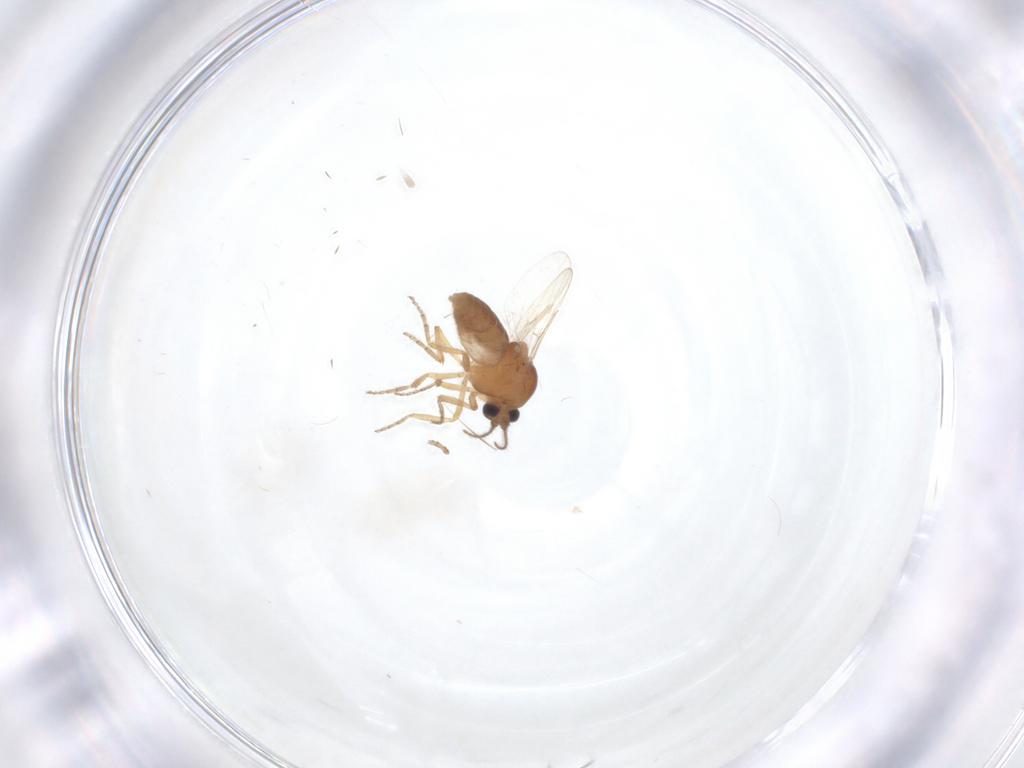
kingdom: Animalia
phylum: Arthropoda
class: Insecta
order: Diptera
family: Ceratopogonidae
